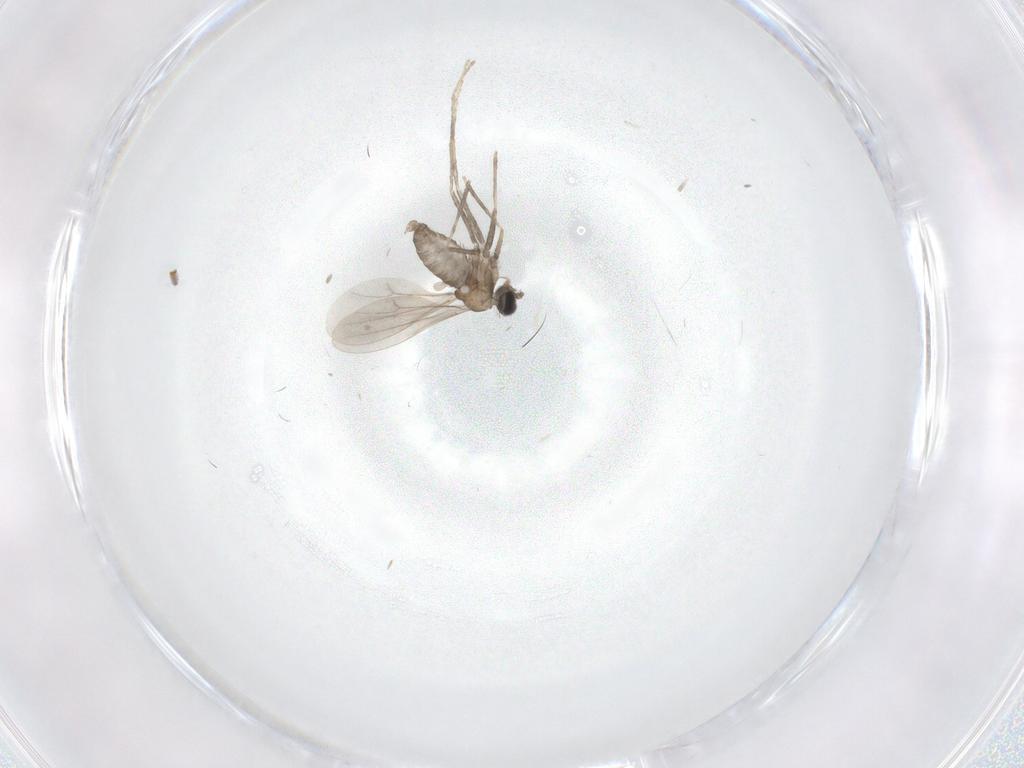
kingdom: Animalia
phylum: Arthropoda
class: Insecta
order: Diptera
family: Cecidomyiidae
